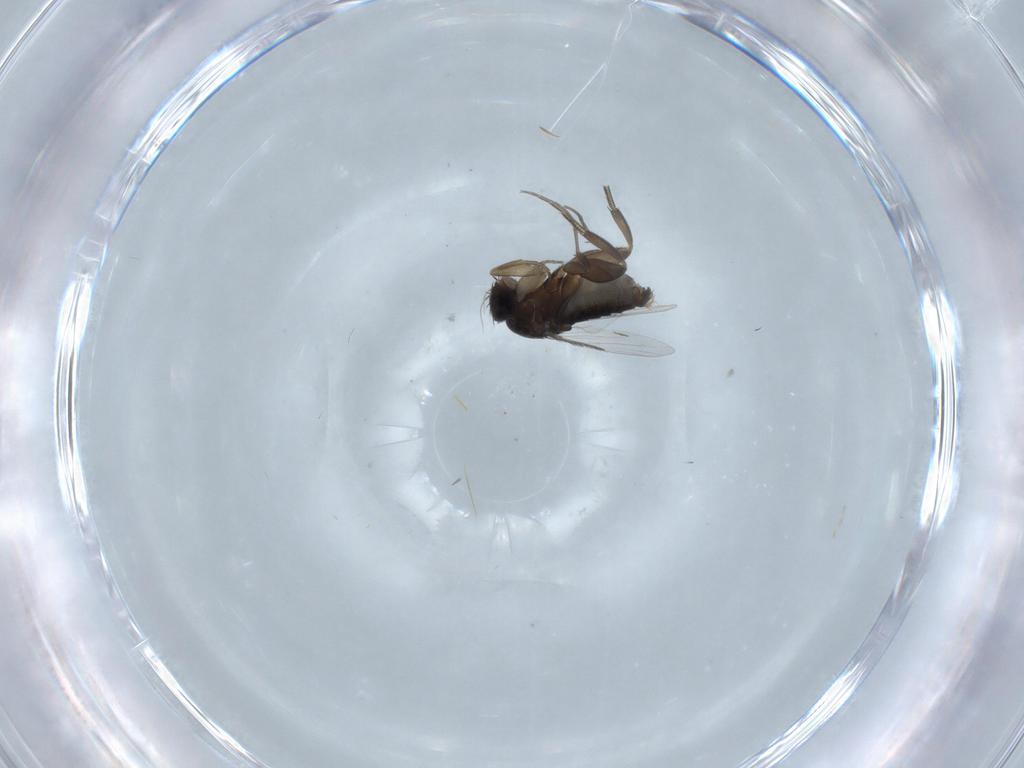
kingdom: Animalia
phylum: Arthropoda
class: Insecta
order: Diptera
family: Phoridae
